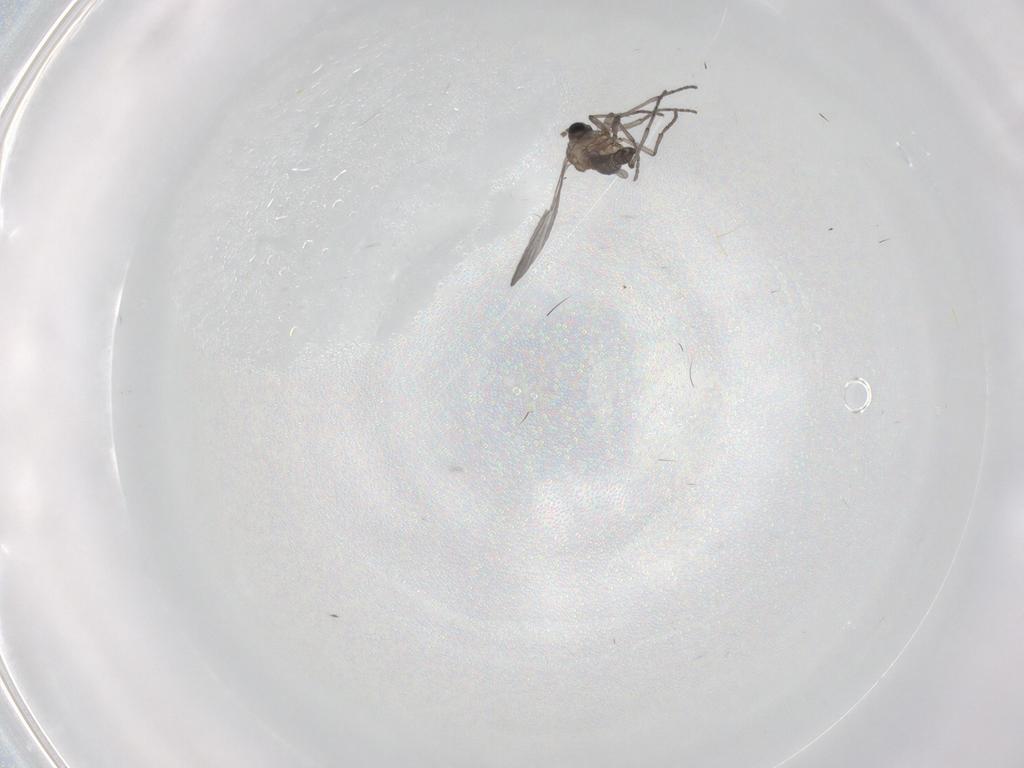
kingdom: Animalia
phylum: Arthropoda
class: Insecta
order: Diptera
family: Sciaridae
